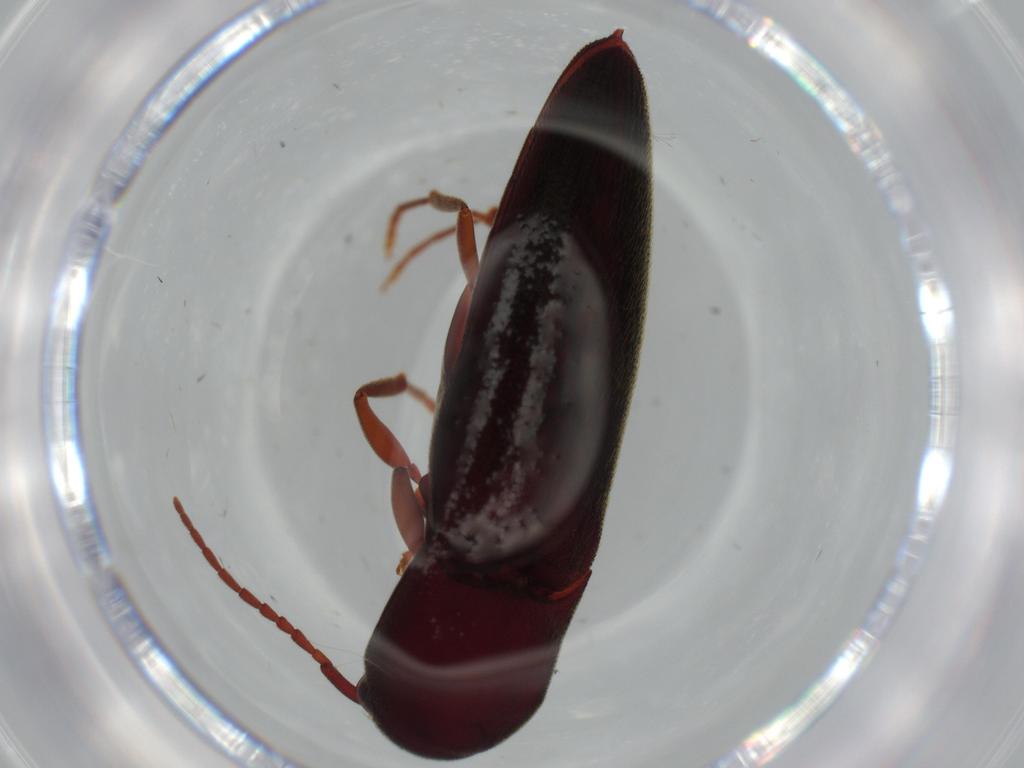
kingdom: Animalia
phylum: Arthropoda
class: Insecta
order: Coleoptera
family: Eucnemidae
